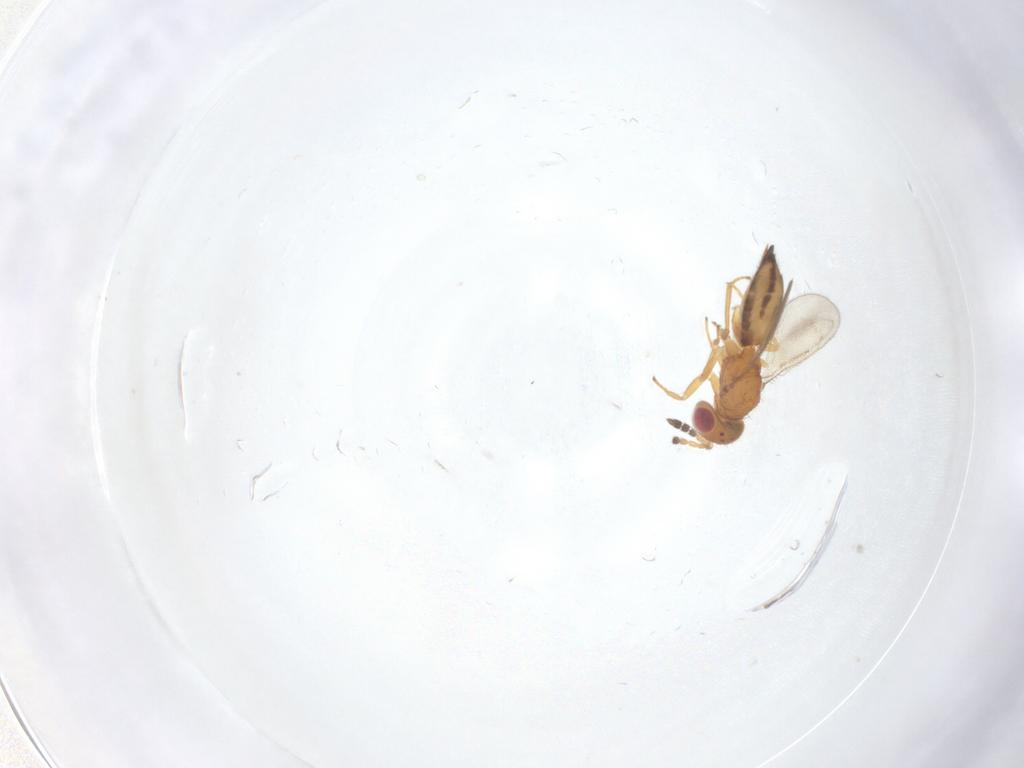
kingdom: Animalia
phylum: Arthropoda
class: Insecta
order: Hymenoptera
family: Eulophidae
